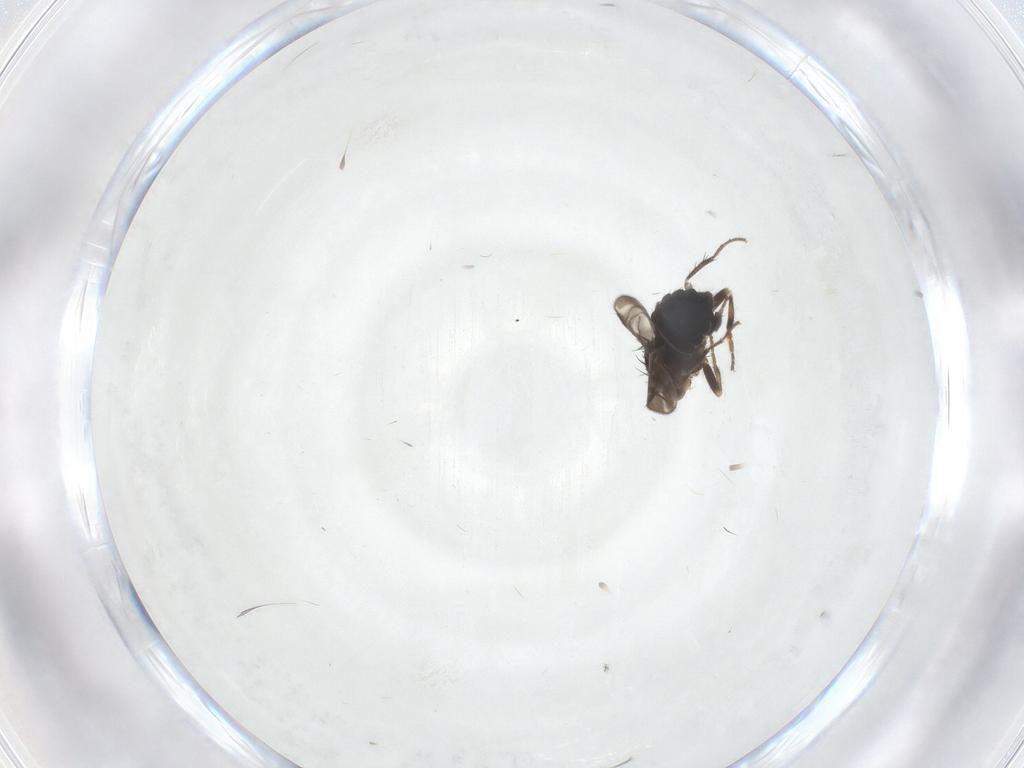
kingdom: Animalia
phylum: Arthropoda
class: Insecta
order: Diptera
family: Sphaeroceridae
